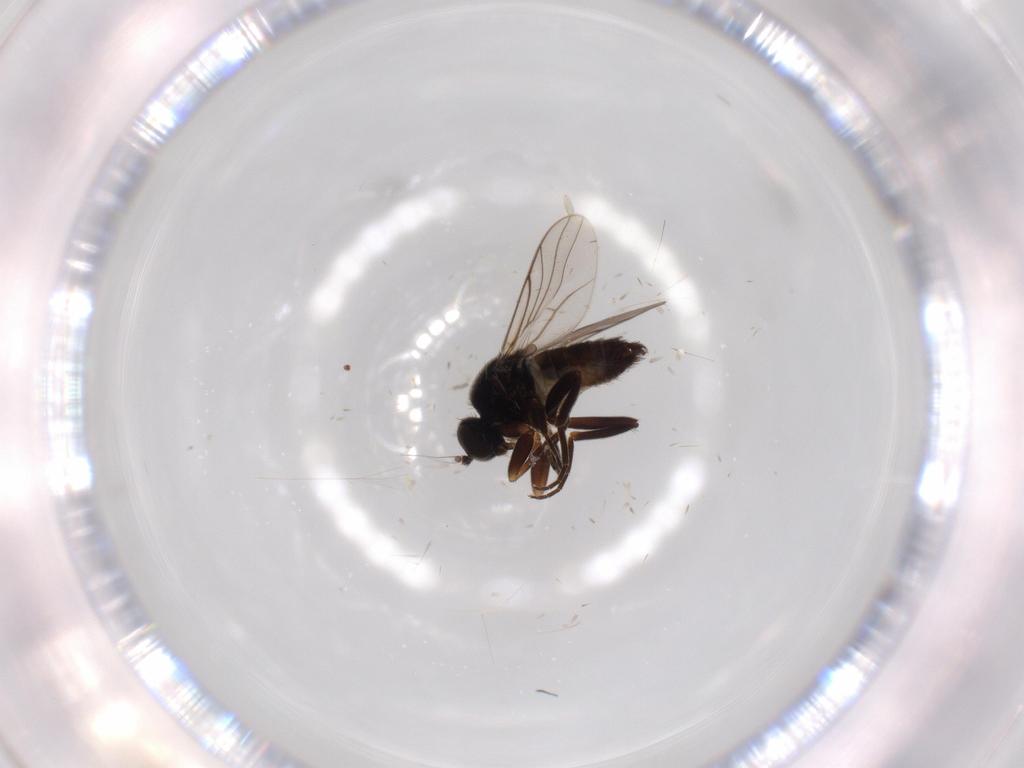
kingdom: Animalia
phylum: Arthropoda
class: Insecta
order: Diptera
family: Hybotidae
